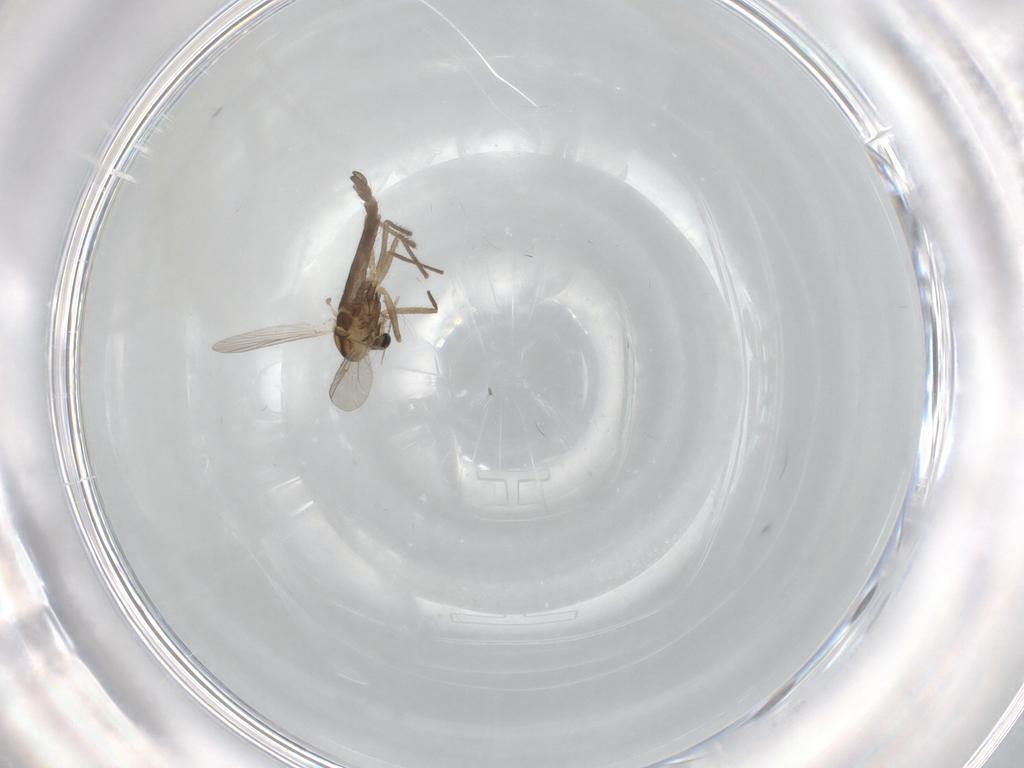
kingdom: Animalia
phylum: Arthropoda
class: Insecta
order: Diptera
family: Chironomidae
